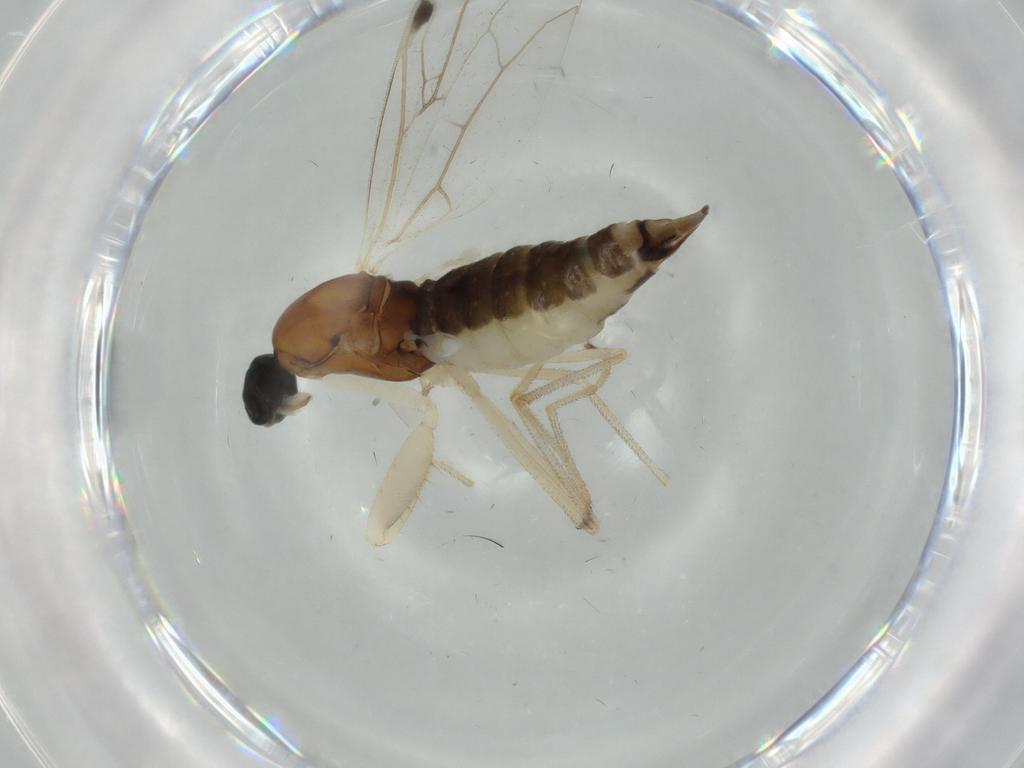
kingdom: Animalia
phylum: Arthropoda
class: Insecta
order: Diptera
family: Empididae
